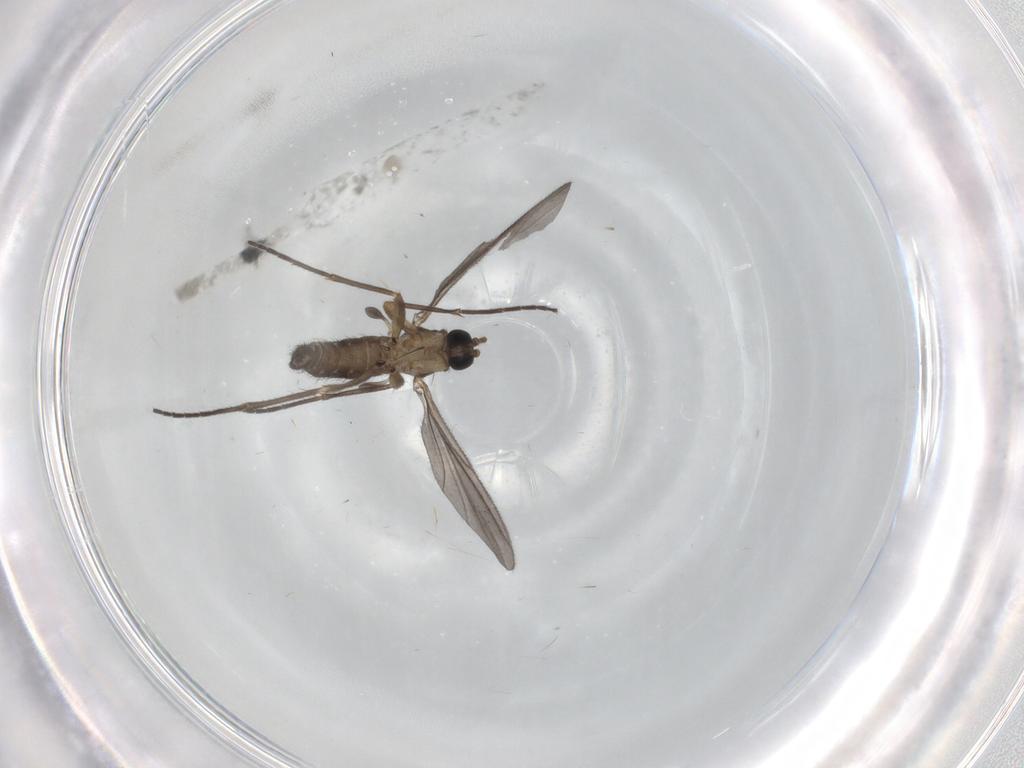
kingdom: Animalia
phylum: Arthropoda
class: Insecta
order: Diptera
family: Sciaridae
